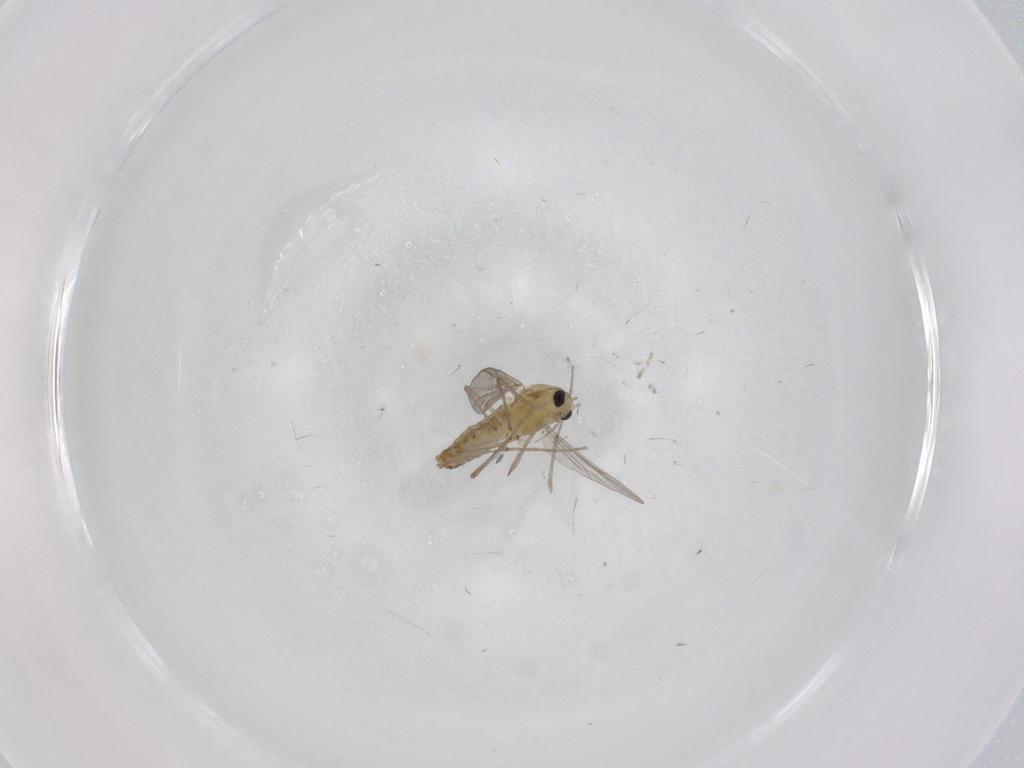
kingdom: Animalia
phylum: Arthropoda
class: Insecta
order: Diptera
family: Chironomidae
